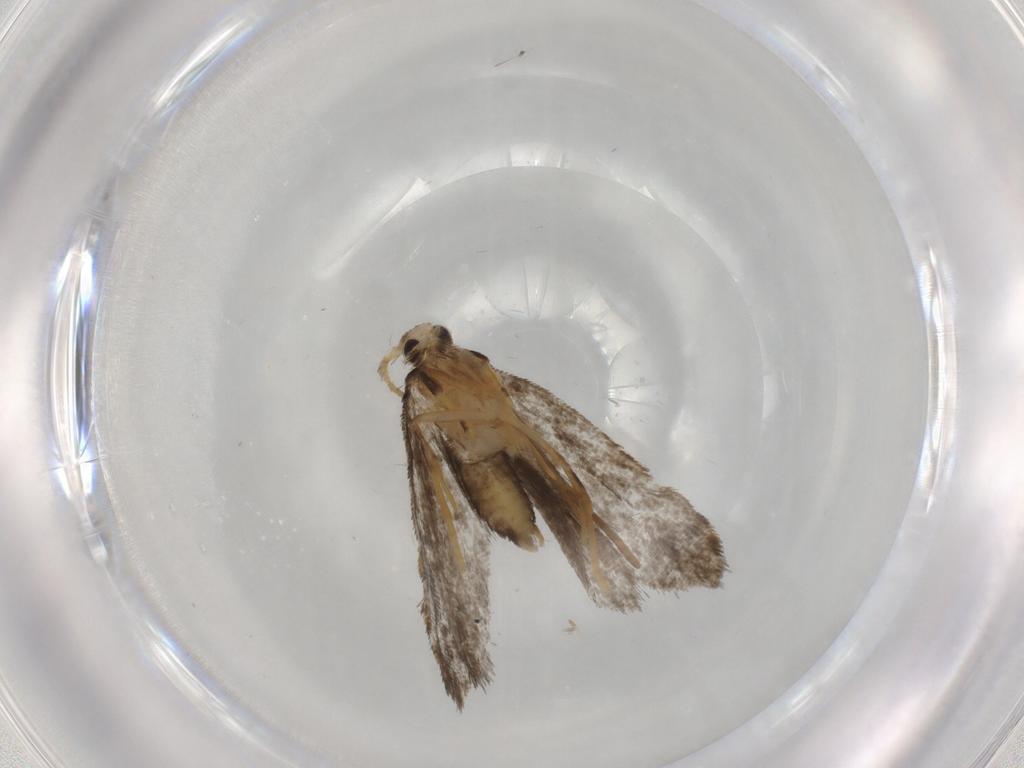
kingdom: Animalia
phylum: Arthropoda
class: Insecta
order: Lepidoptera
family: Psychidae
